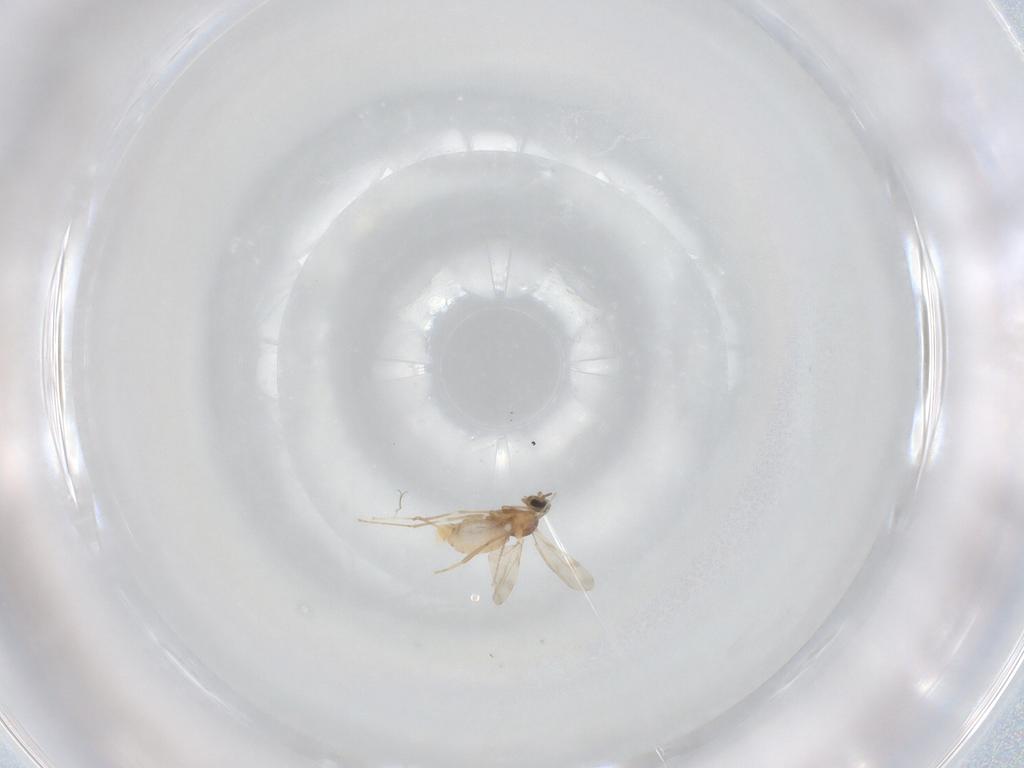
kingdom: Animalia
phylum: Arthropoda
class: Insecta
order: Diptera
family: Cecidomyiidae
